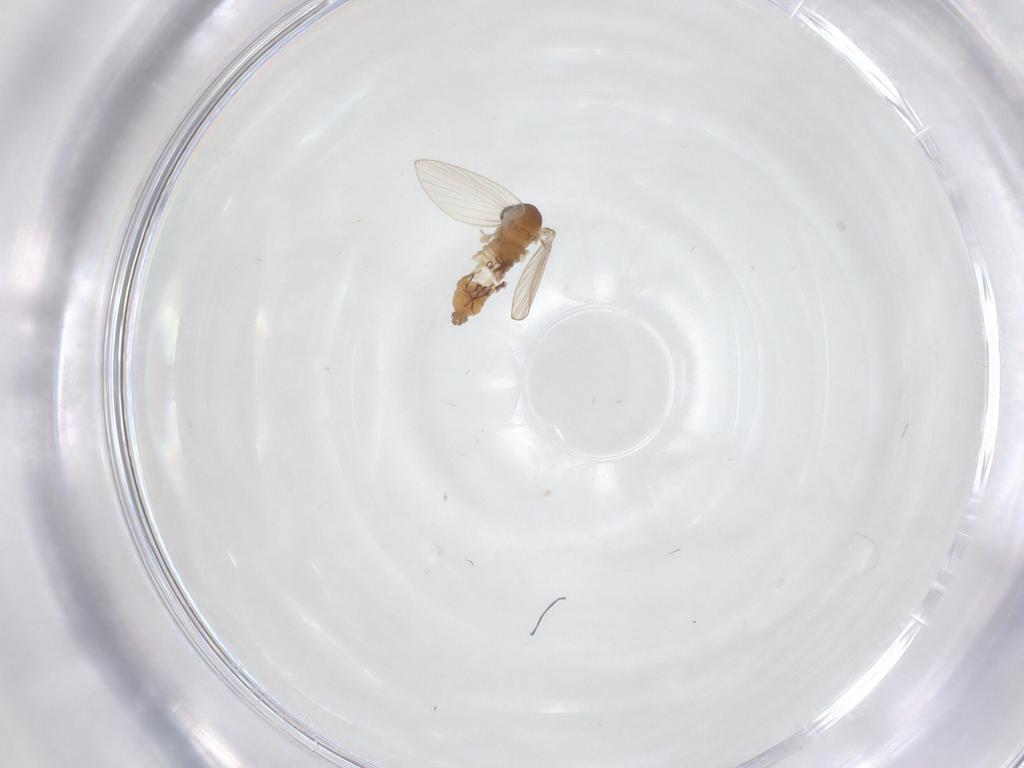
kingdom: Animalia
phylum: Arthropoda
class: Insecta
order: Diptera
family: Psychodidae
